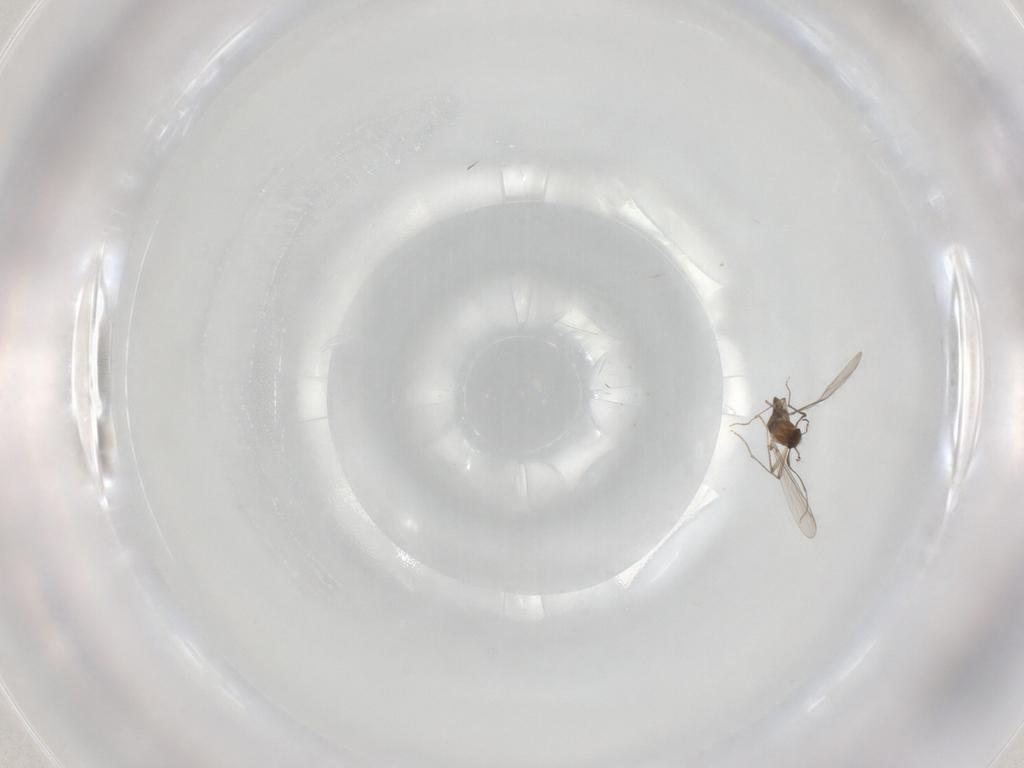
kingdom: Animalia
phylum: Arthropoda
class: Insecta
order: Diptera
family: Chironomidae
